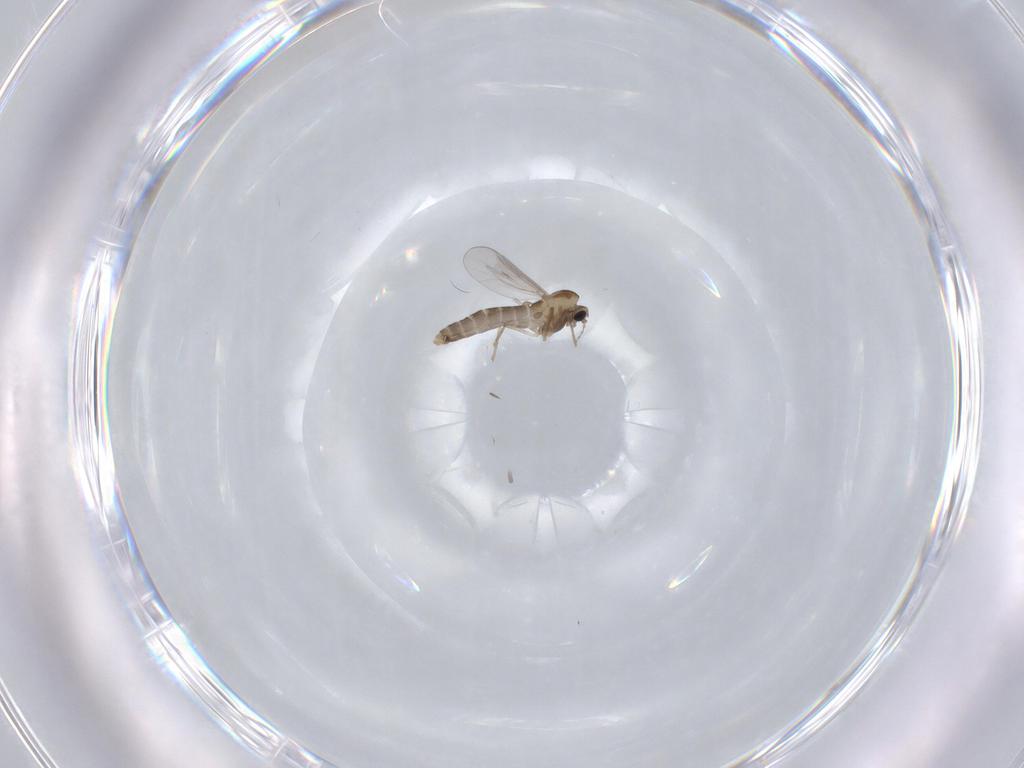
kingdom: Animalia
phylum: Arthropoda
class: Insecta
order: Diptera
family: Chironomidae
